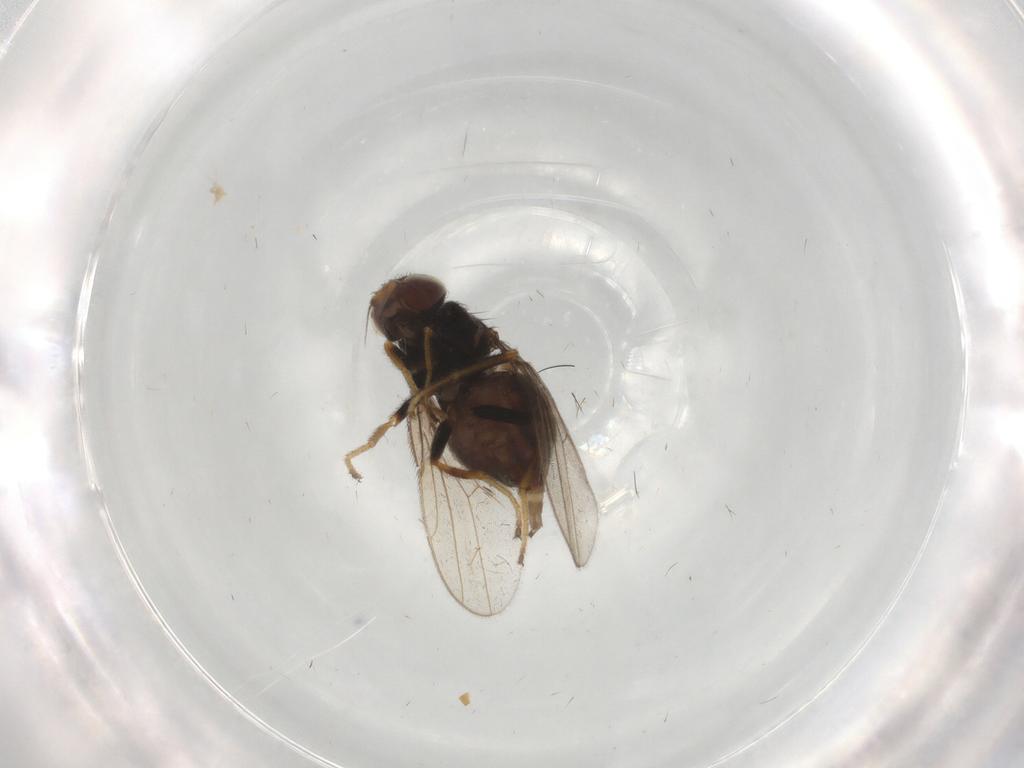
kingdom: Animalia
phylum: Arthropoda
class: Insecta
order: Diptera
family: Chloropidae
